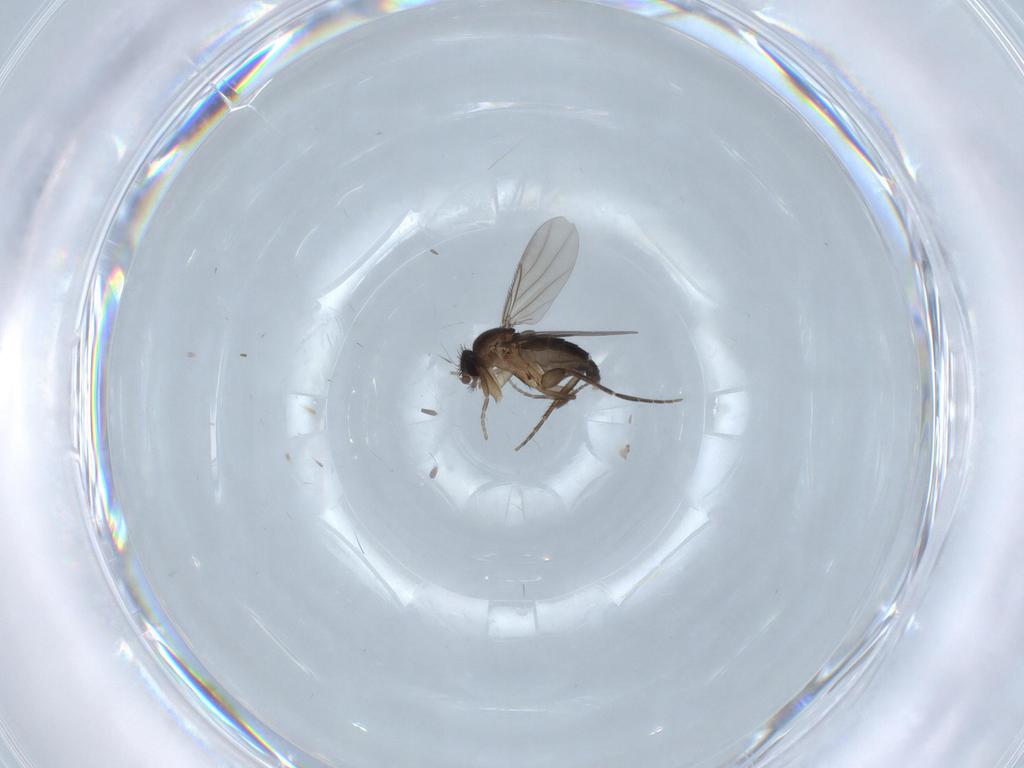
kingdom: Animalia
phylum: Arthropoda
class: Insecta
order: Diptera
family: Phoridae
